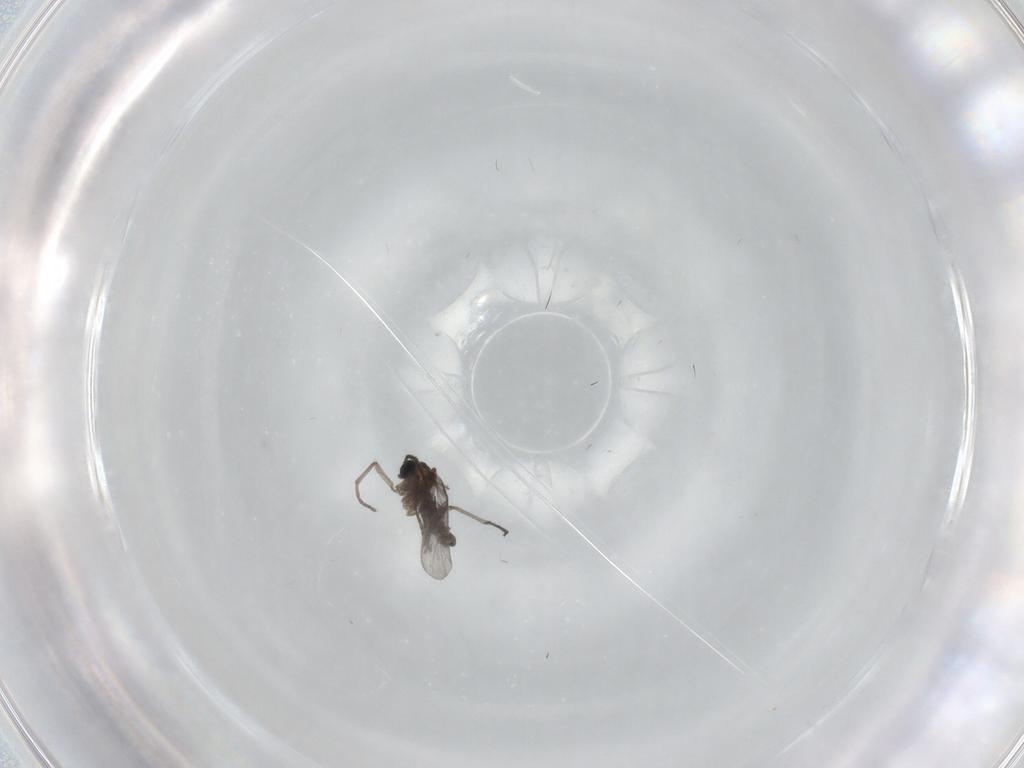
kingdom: Animalia
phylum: Arthropoda
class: Insecta
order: Diptera
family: Sciaridae
